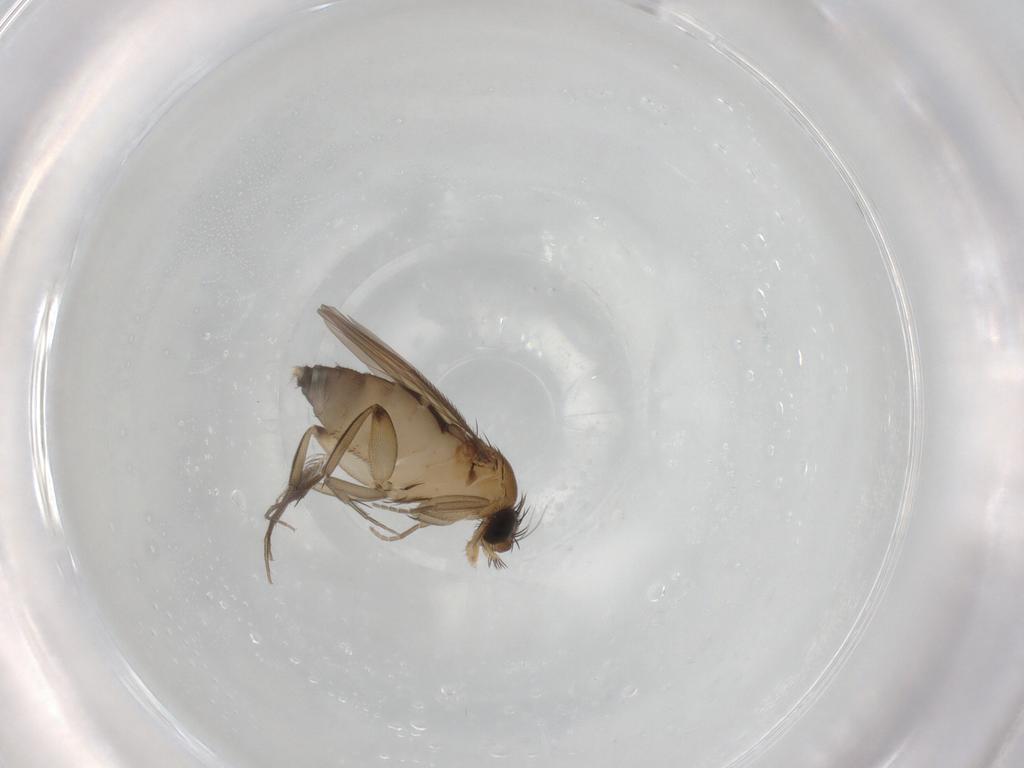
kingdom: Animalia
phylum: Arthropoda
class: Insecta
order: Diptera
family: Phoridae
